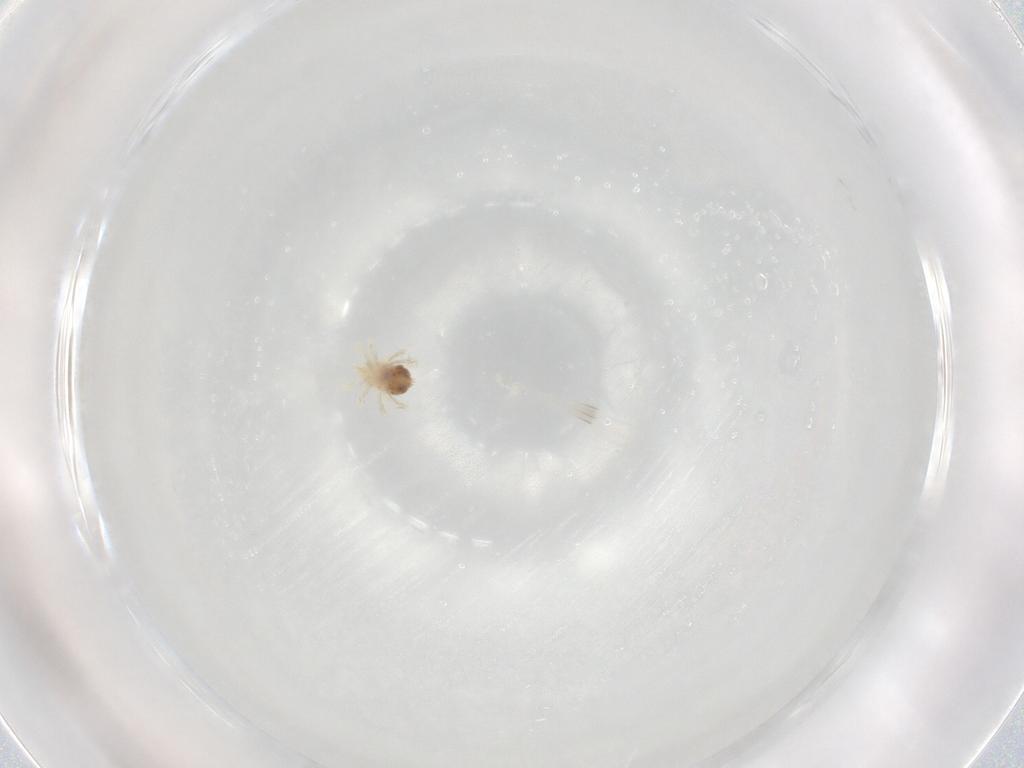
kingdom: Animalia
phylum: Arthropoda
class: Arachnida
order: Trombidiformes
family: Anystidae
